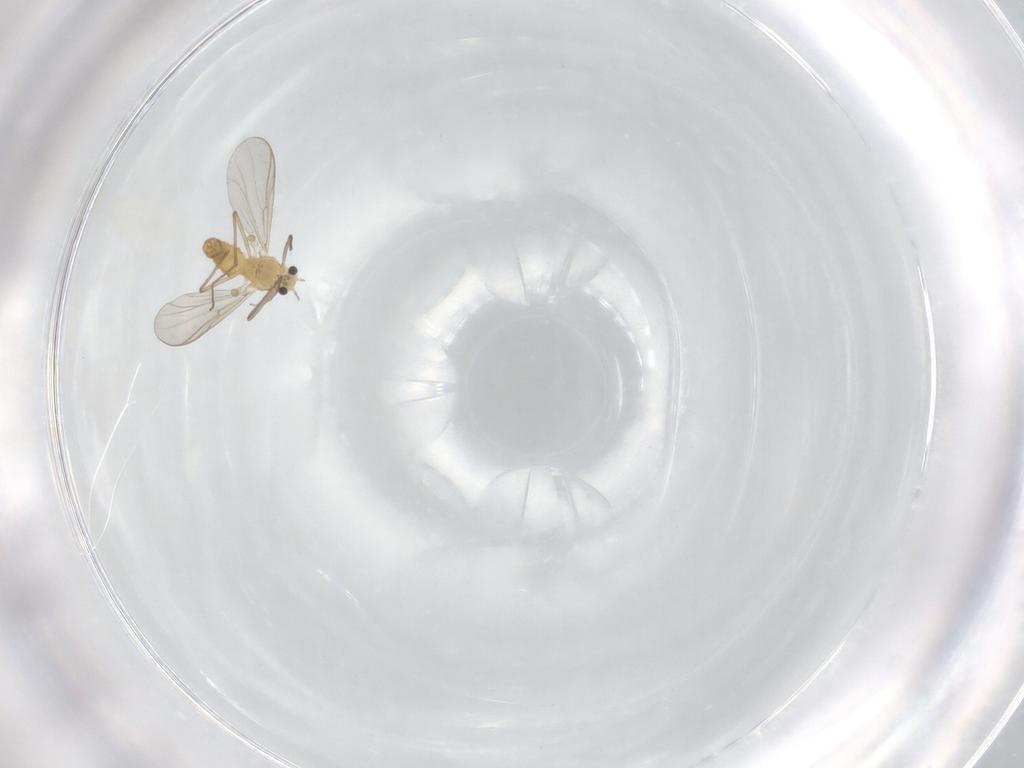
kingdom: Animalia
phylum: Arthropoda
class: Insecta
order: Diptera
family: Chironomidae
